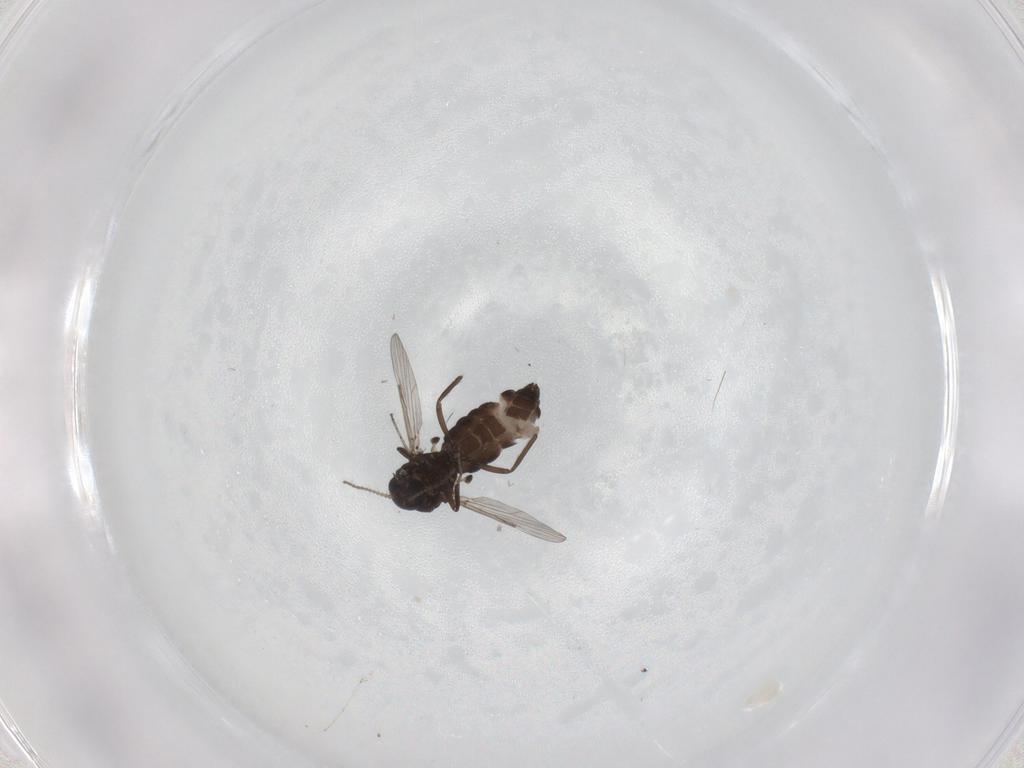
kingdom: Animalia
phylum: Arthropoda
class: Insecta
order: Diptera
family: Ceratopogonidae
